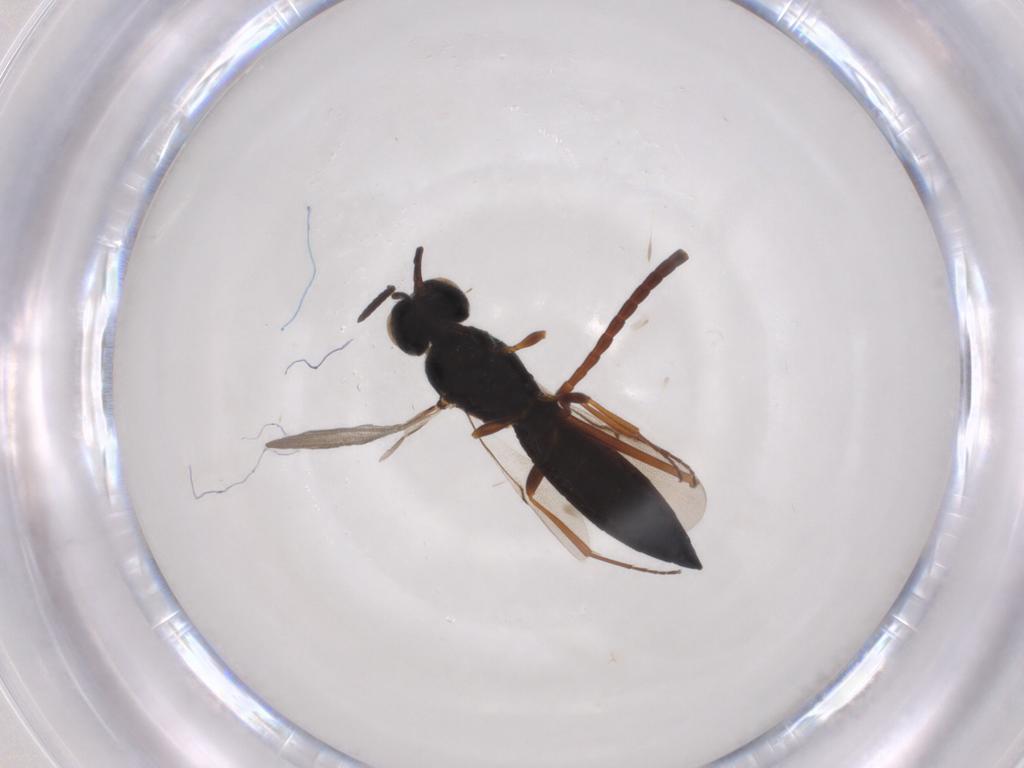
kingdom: Animalia
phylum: Arthropoda
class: Insecta
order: Hymenoptera
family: Scelionidae
